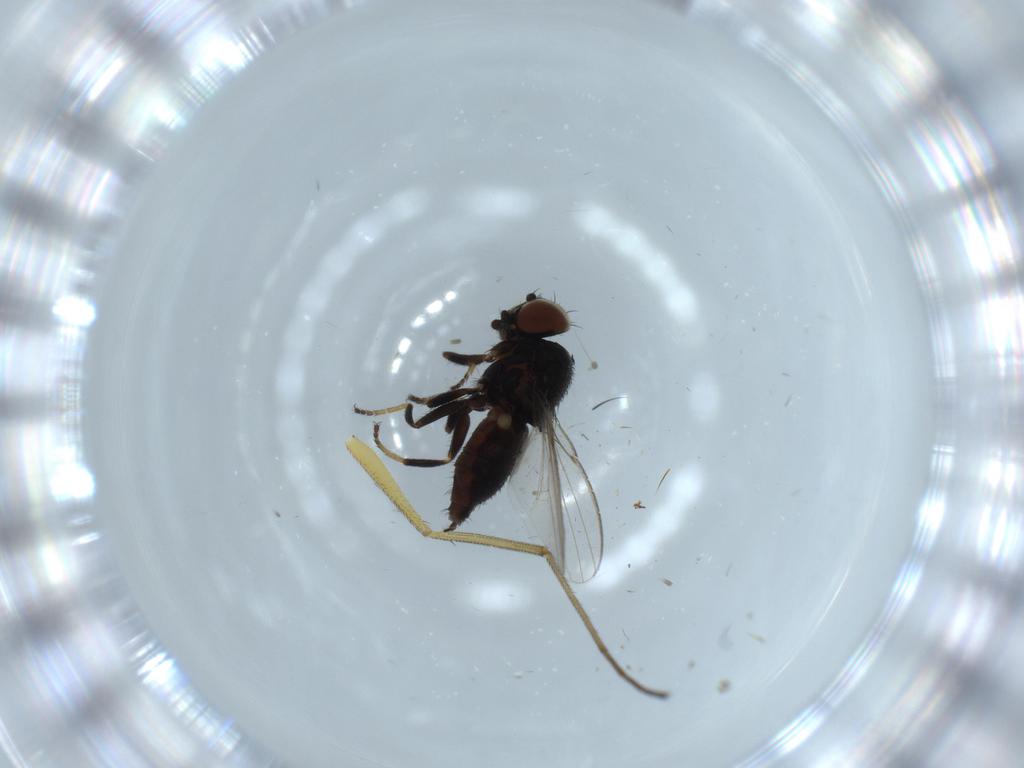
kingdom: Animalia
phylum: Arthropoda
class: Insecta
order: Diptera
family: Milichiidae
